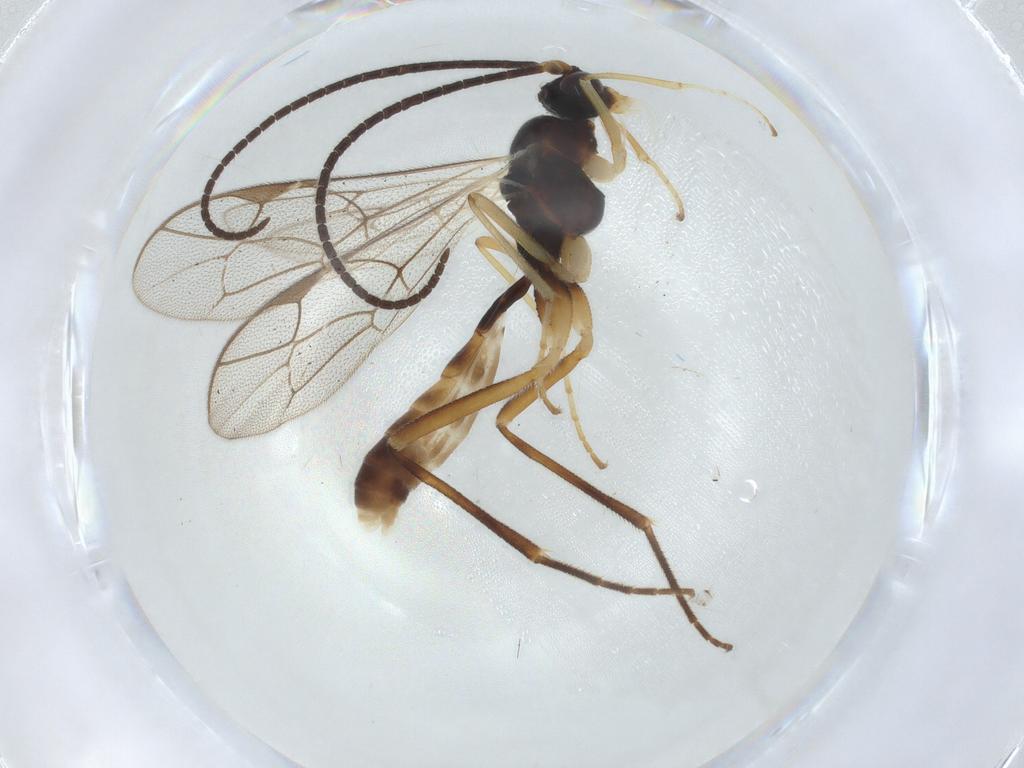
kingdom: Animalia
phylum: Arthropoda
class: Insecta
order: Hymenoptera
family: Ichneumonidae
